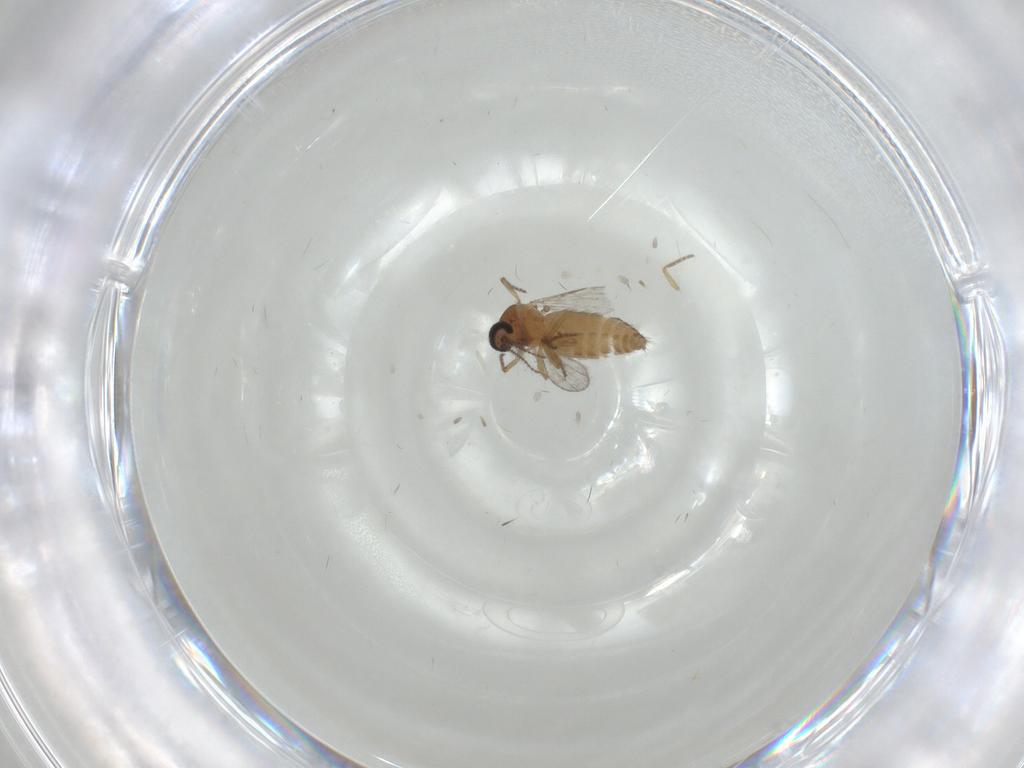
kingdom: Animalia
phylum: Arthropoda
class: Insecta
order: Diptera
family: Ceratopogonidae
